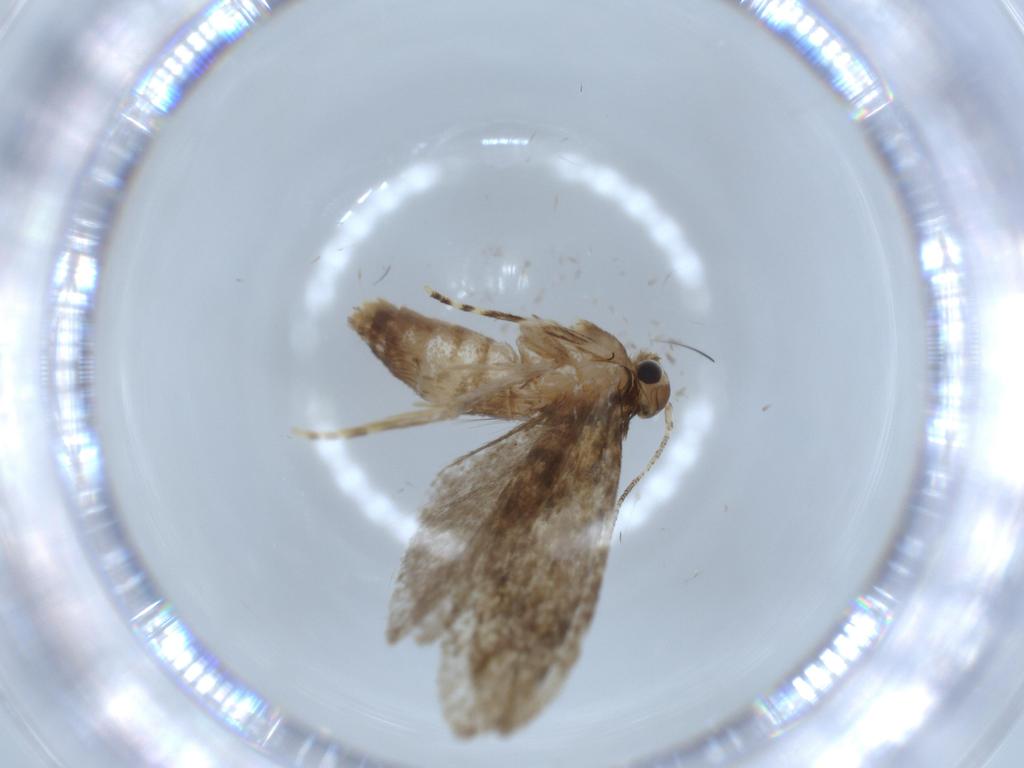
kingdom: Animalia
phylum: Arthropoda
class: Insecta
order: Lepidoptera
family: Tineidae
